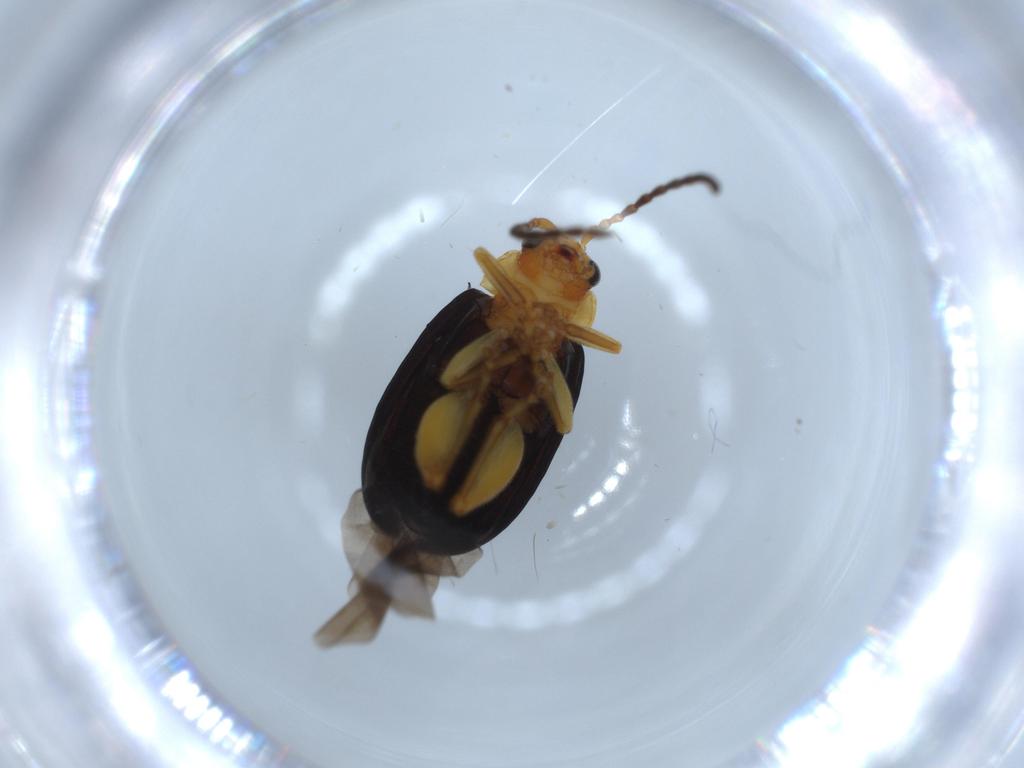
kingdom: Animalia
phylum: Arthropoda
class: Insecta
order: Coleoptera
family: Chrysomelidae
